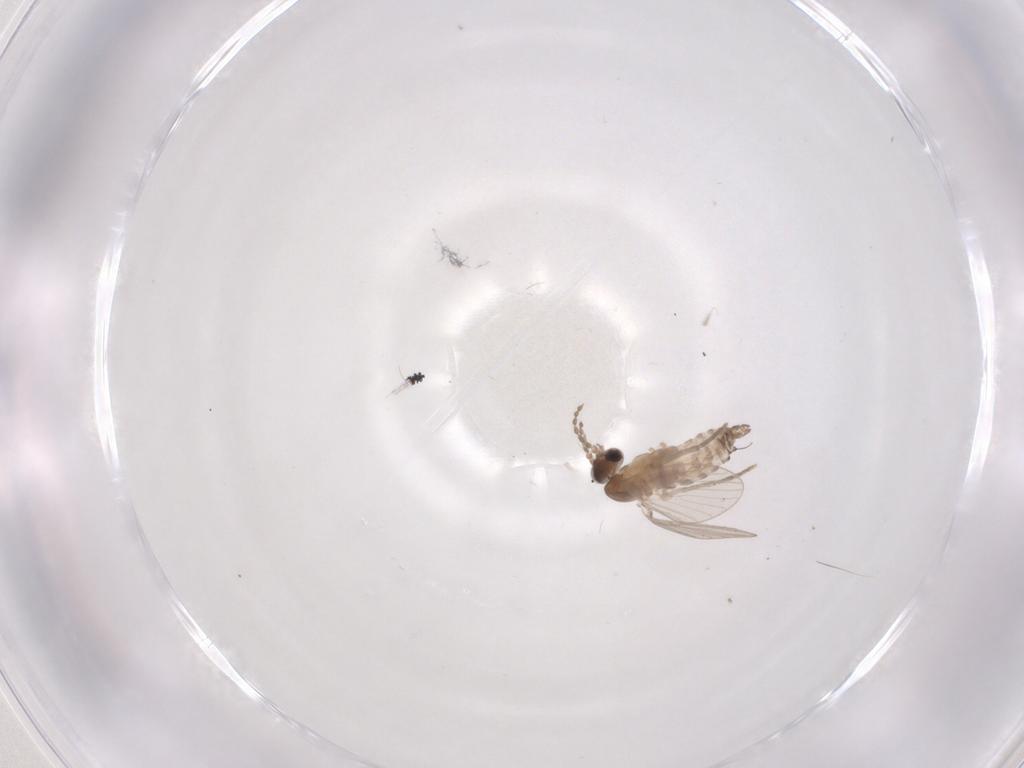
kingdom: Animalia
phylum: Arthropoda
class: Insecta
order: Diptera
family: Psychodidae
